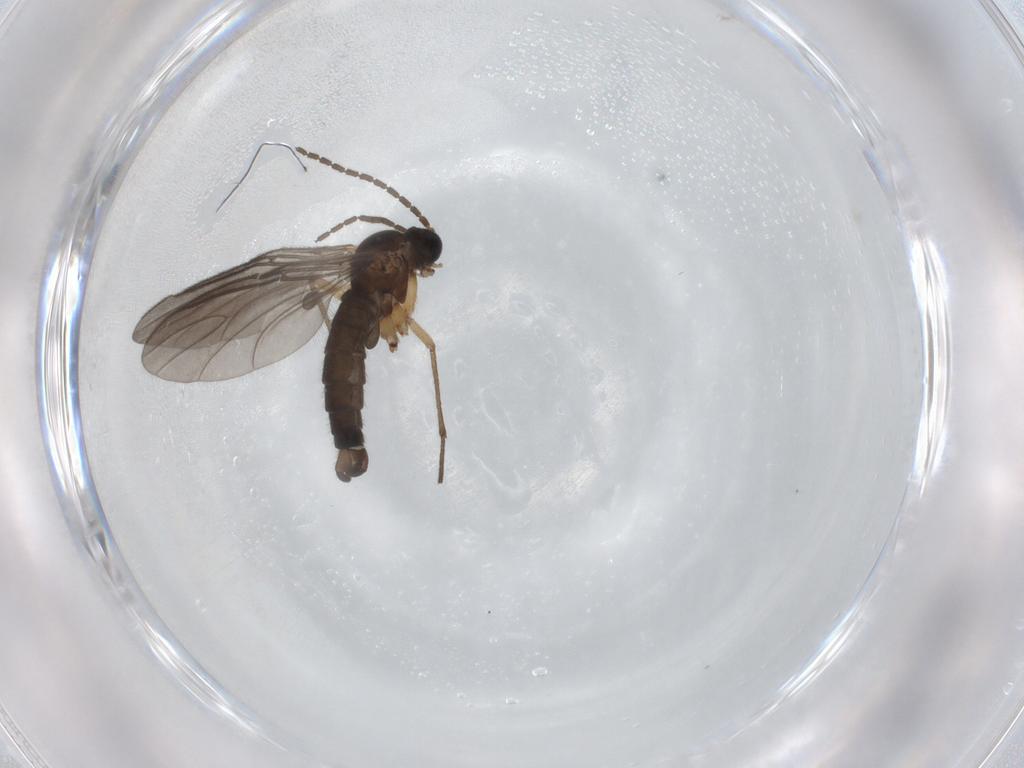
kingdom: Animalia
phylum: Arthropoda
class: Insecta
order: Diptera
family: Sciaridae
